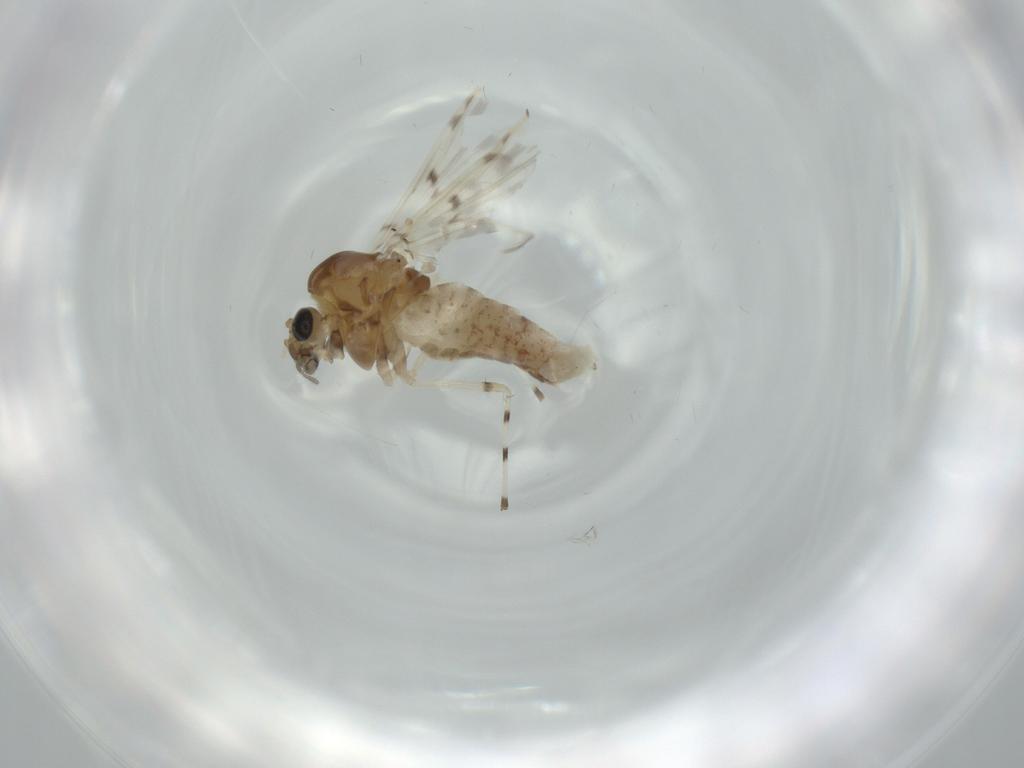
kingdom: Animalia
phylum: Arthropoda
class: Insecta
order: Diptera
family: Chironomidae
